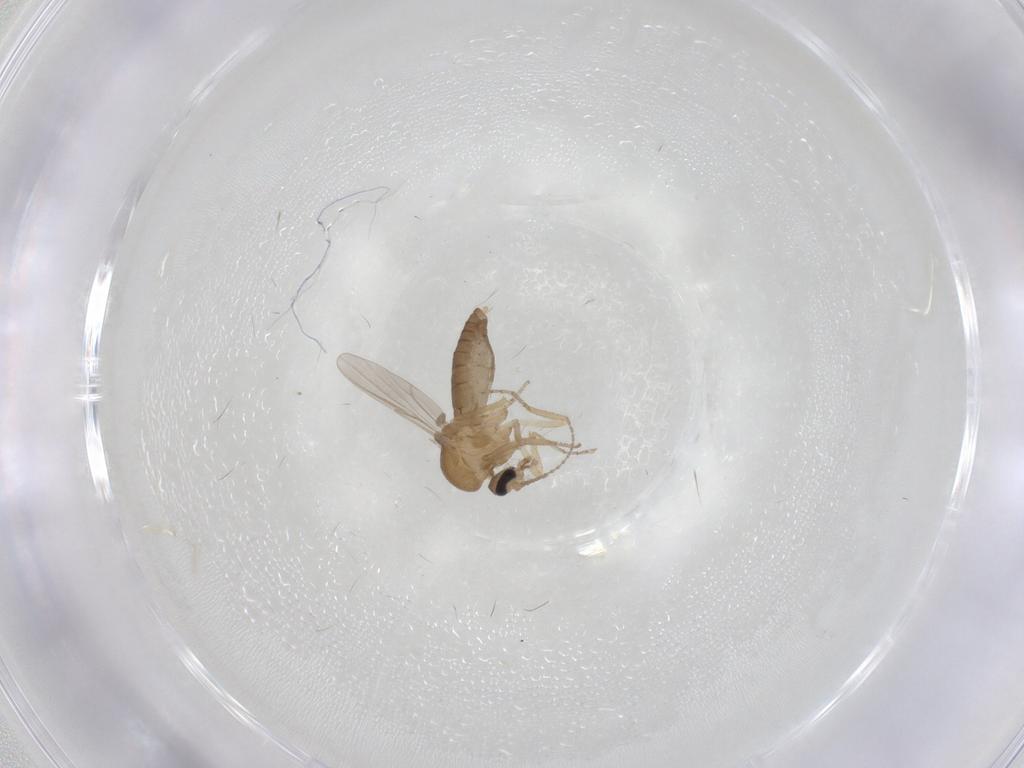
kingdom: Animalia
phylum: Arthropoda
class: Insecta
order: Diptera
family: Ceratopogonidae
